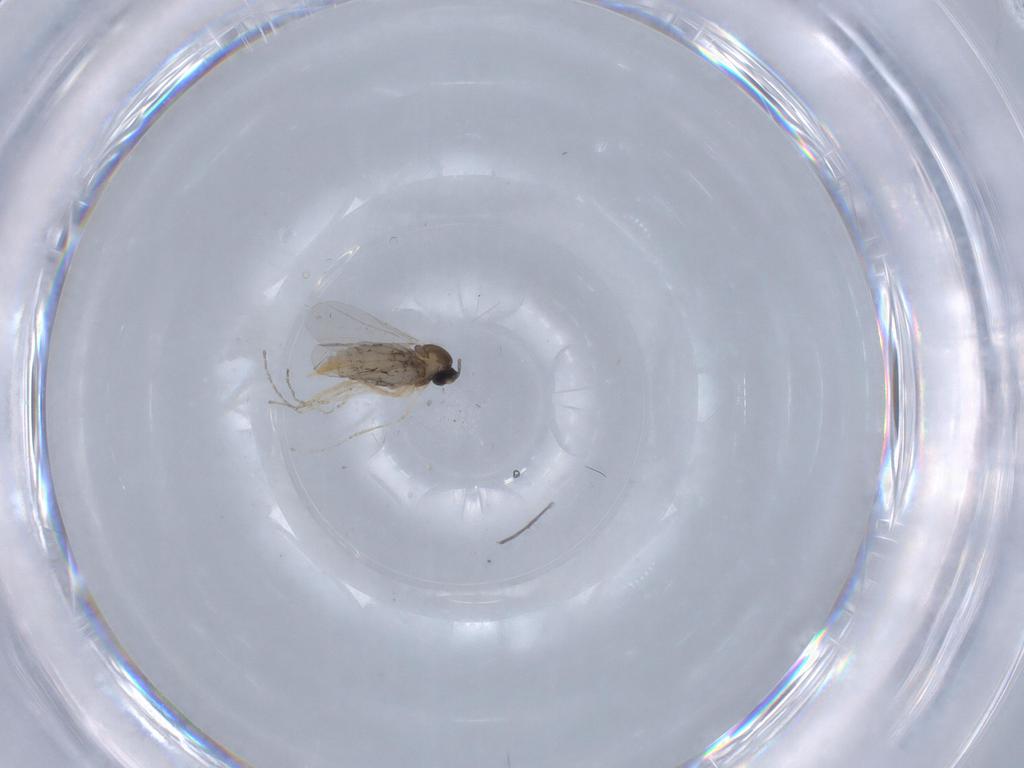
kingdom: Animalia
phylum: Arthropoda
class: Insecta
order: Diptera
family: Cecidomyiidae
